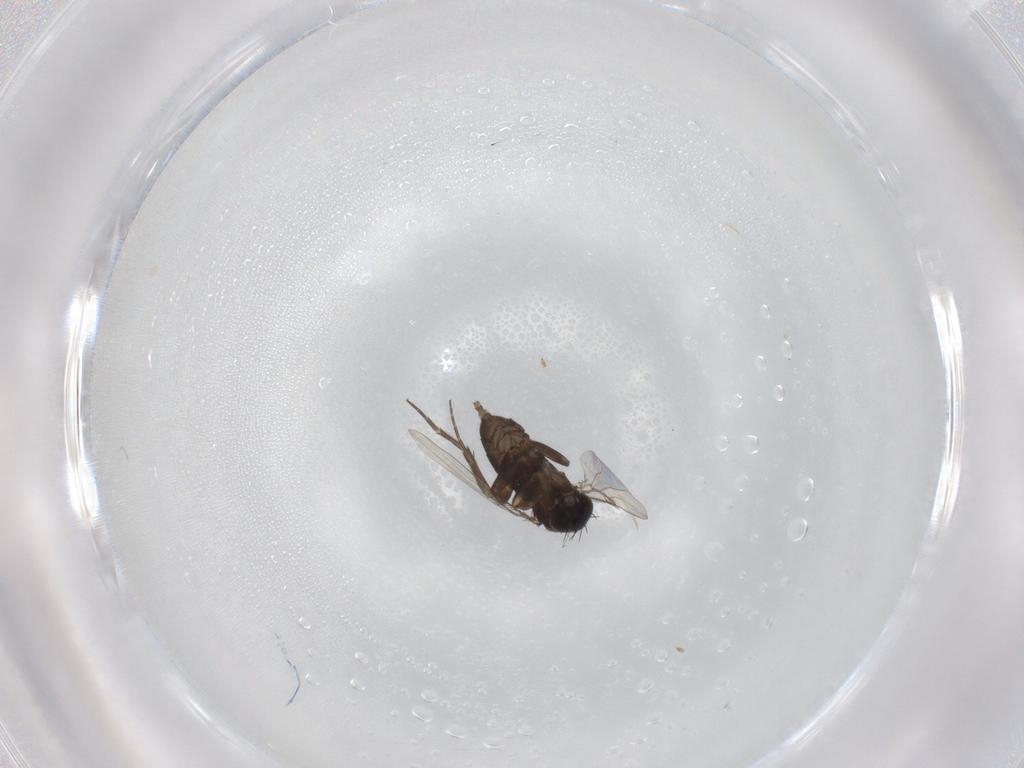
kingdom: Animalia
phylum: Arthropoda
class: Insecta
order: Diptera
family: Phoridae
